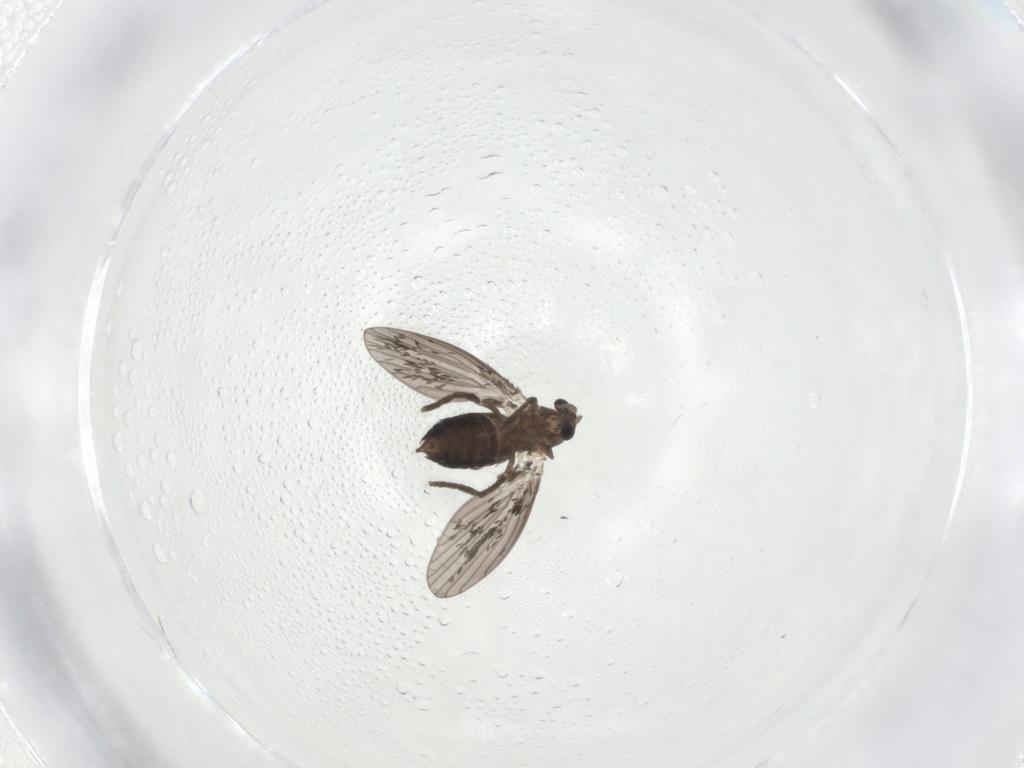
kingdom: Animalia
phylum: Arthropoda
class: Insecta
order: Diptera
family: Chironomidae
